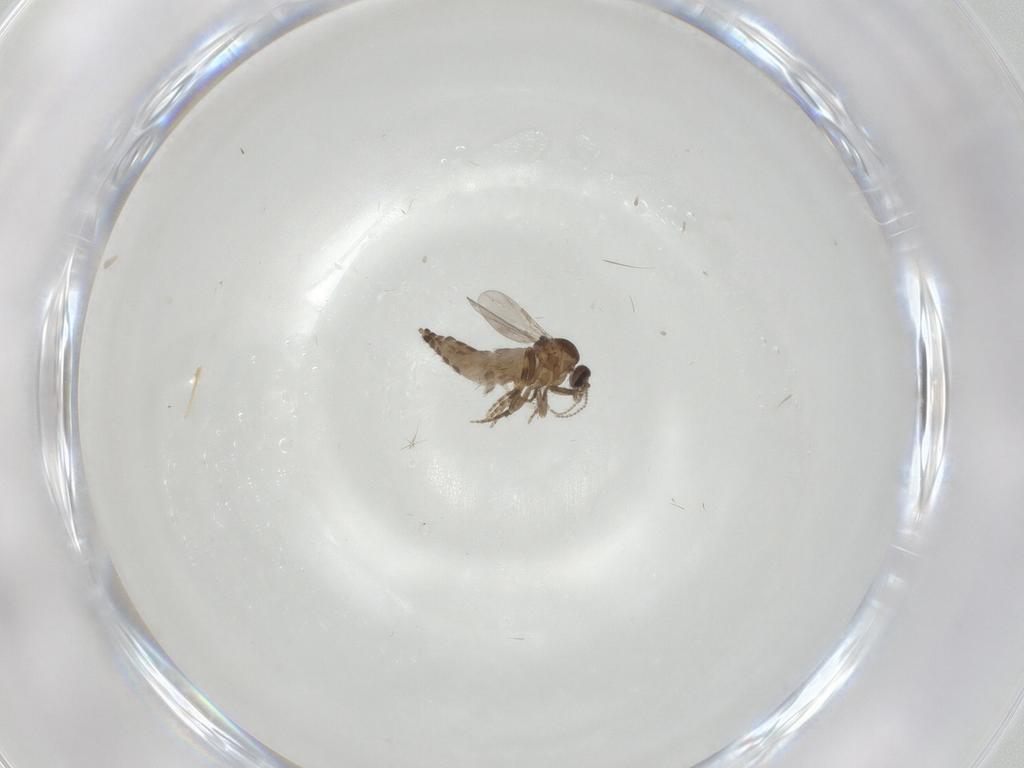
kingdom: Animalia
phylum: Arthropoda
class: Insecta
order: Diptera
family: Ceratopogonidae
